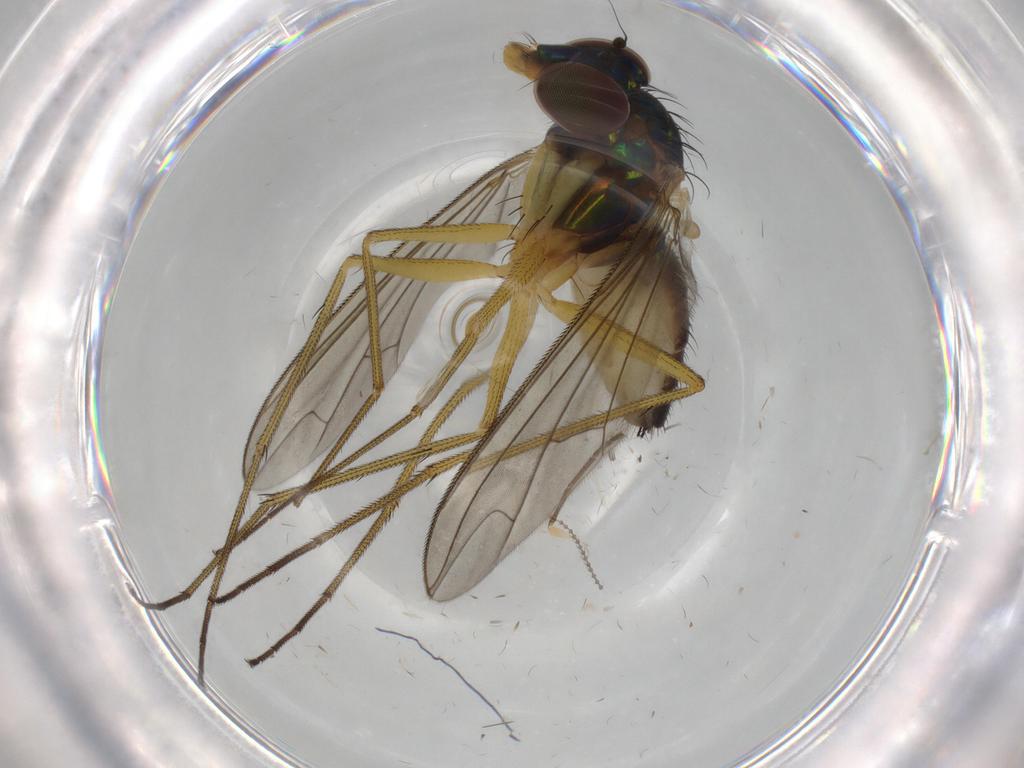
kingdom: Animalia
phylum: Arthropoda
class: Insecta
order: Diptera
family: Dolichopodidae
